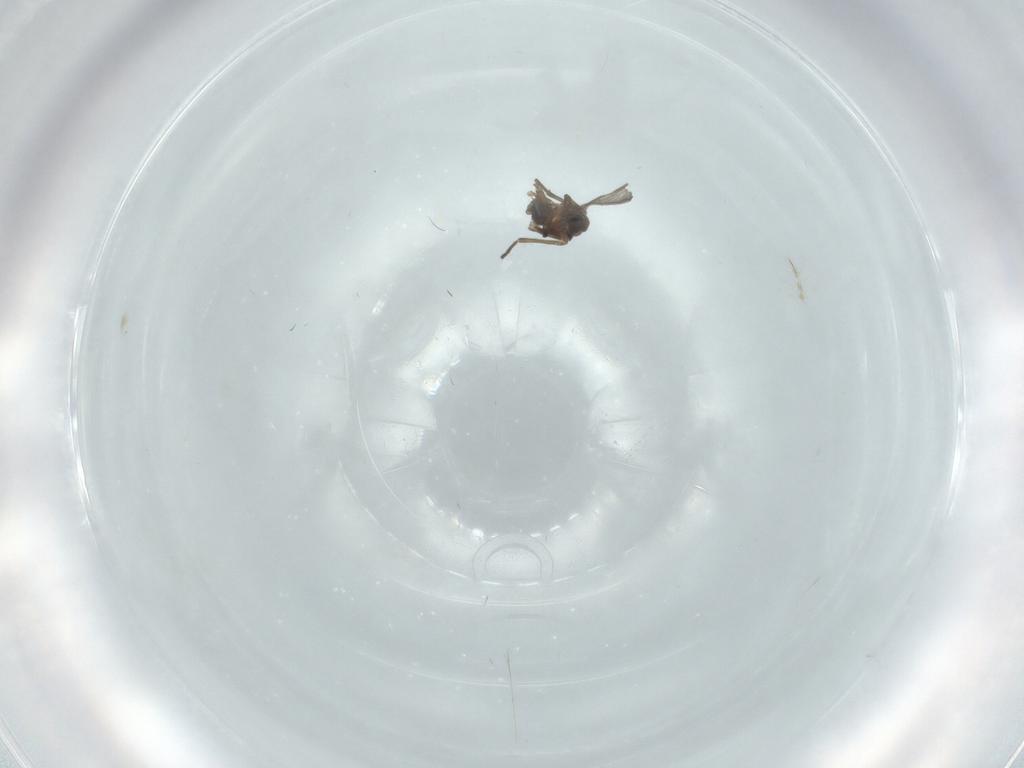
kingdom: Animalia
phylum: Arthropoda
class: Insecta
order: Diptera
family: Sciaridae
